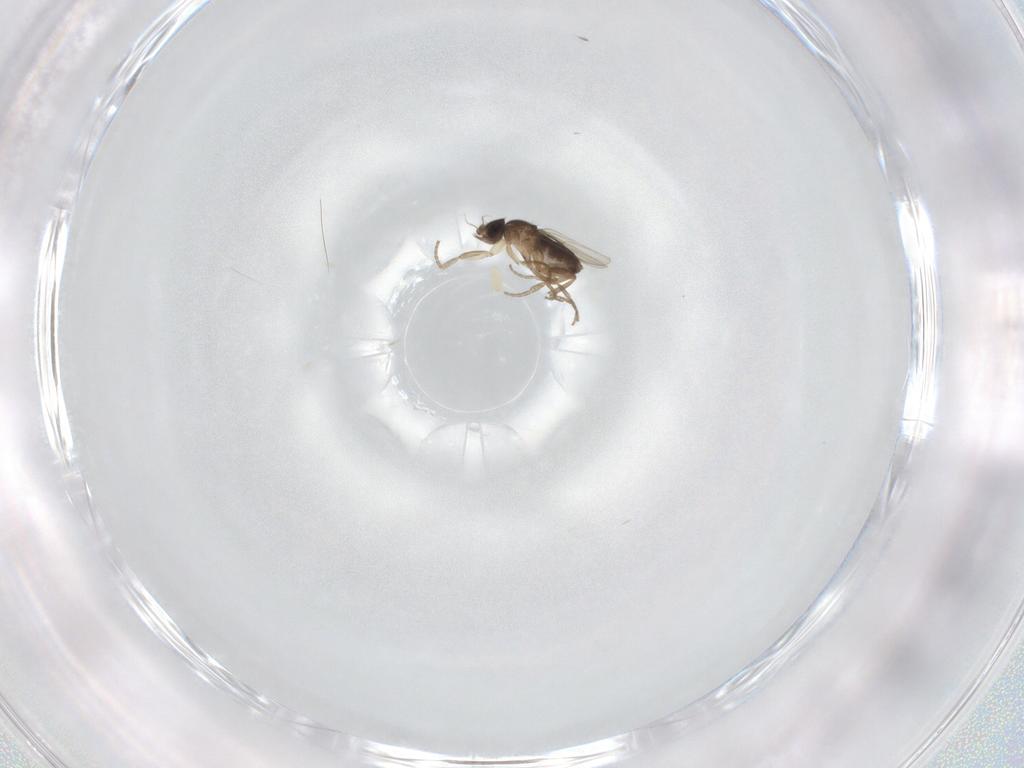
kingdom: Animalia
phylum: Arthropoda
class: Insecta
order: Diptera
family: Phoridae
